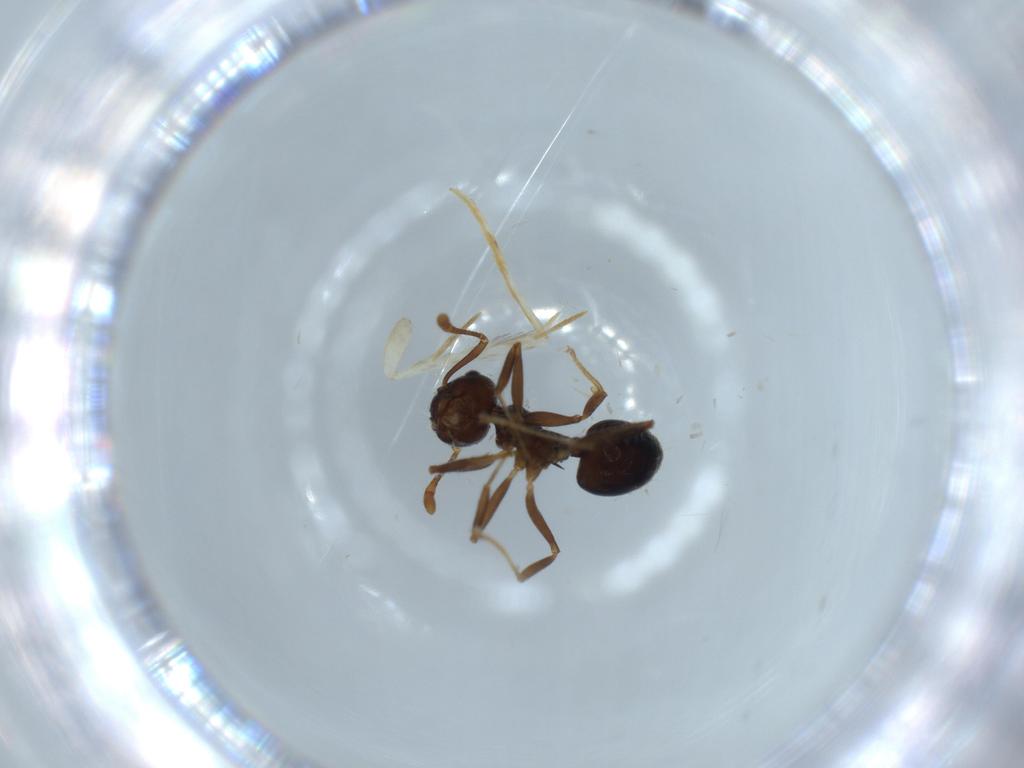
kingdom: Animalia
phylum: Arthropoda
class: Insecta
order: Hymenoptera
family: Formicidae
